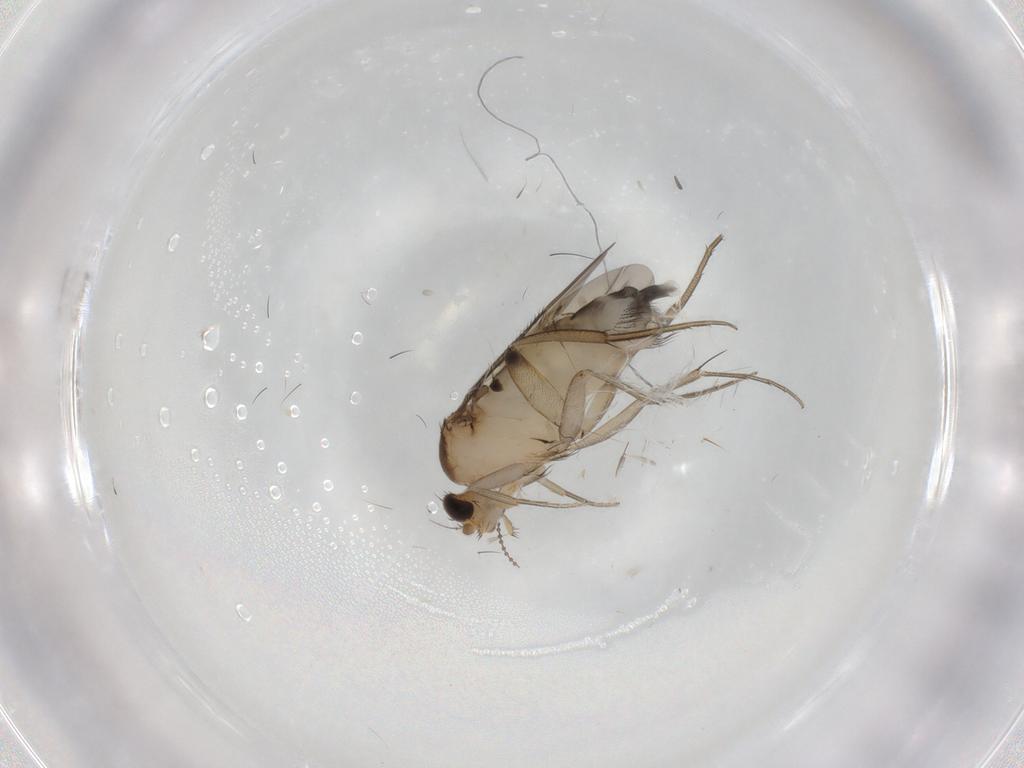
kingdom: Animalia
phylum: Arthropoda
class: Insecta
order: Diptera
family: Phoridae
